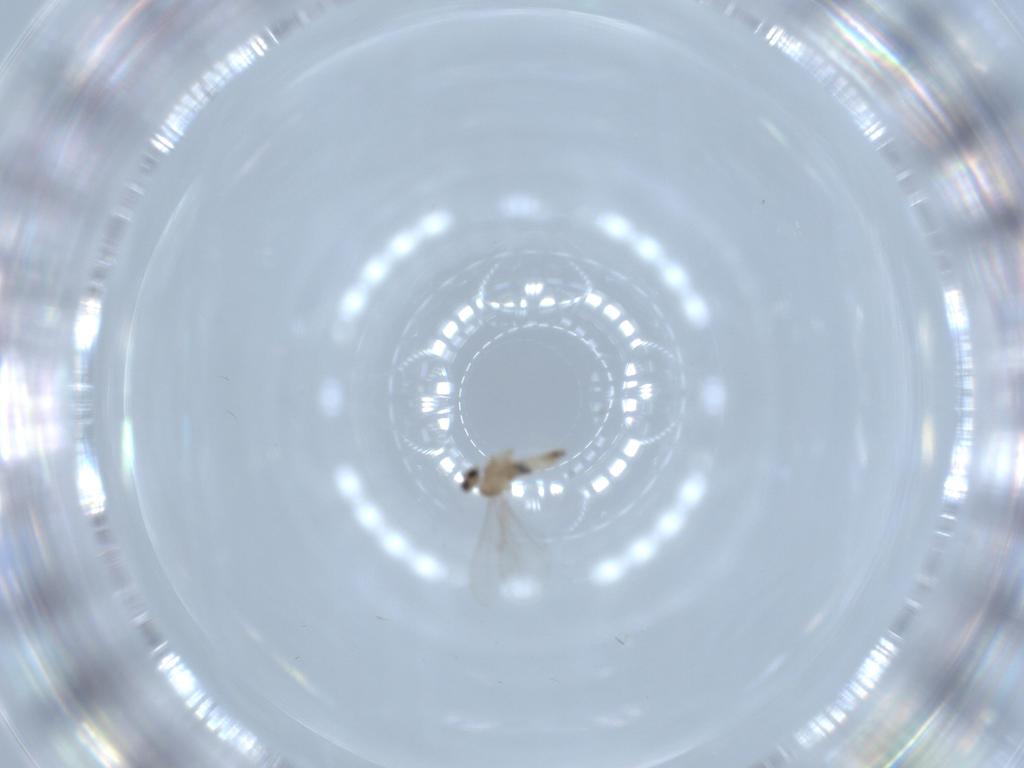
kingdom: Animalia
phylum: Arthropoda
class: Insecta
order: Diptera
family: Cecidomyiidae
